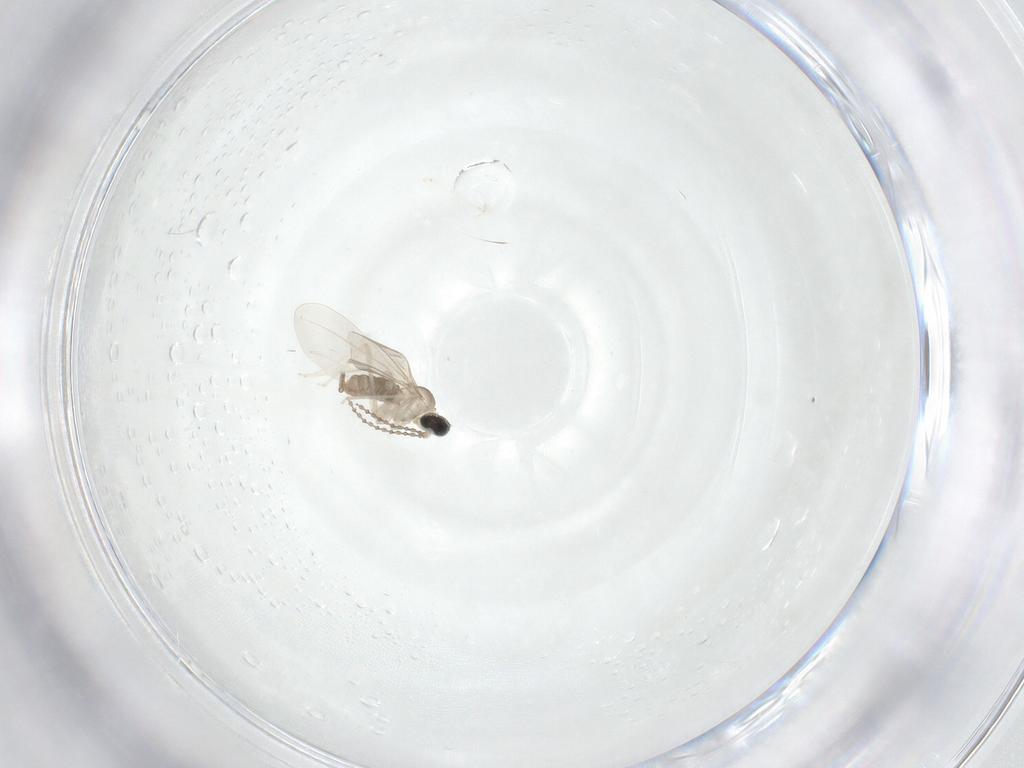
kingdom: Animalia
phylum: Arthropoda
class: Insecta
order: Diptera
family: Cecidomyiidae
